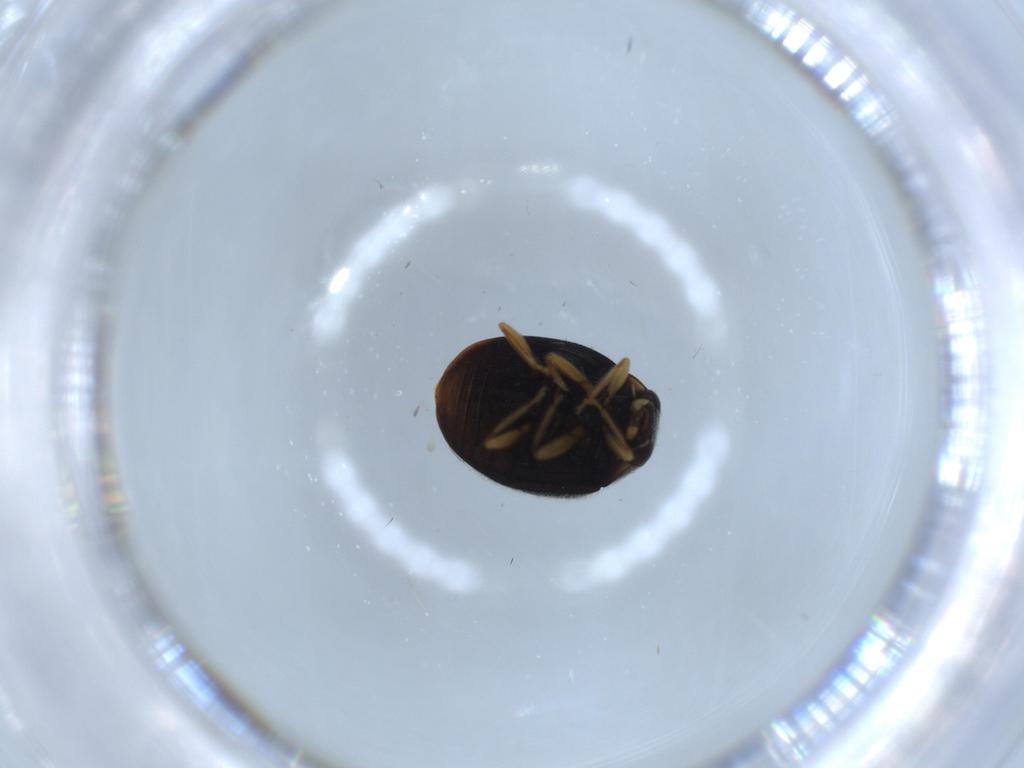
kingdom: Animalia
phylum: Arthropoda
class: Insecta
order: Coleoptera
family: Coccinellidae
